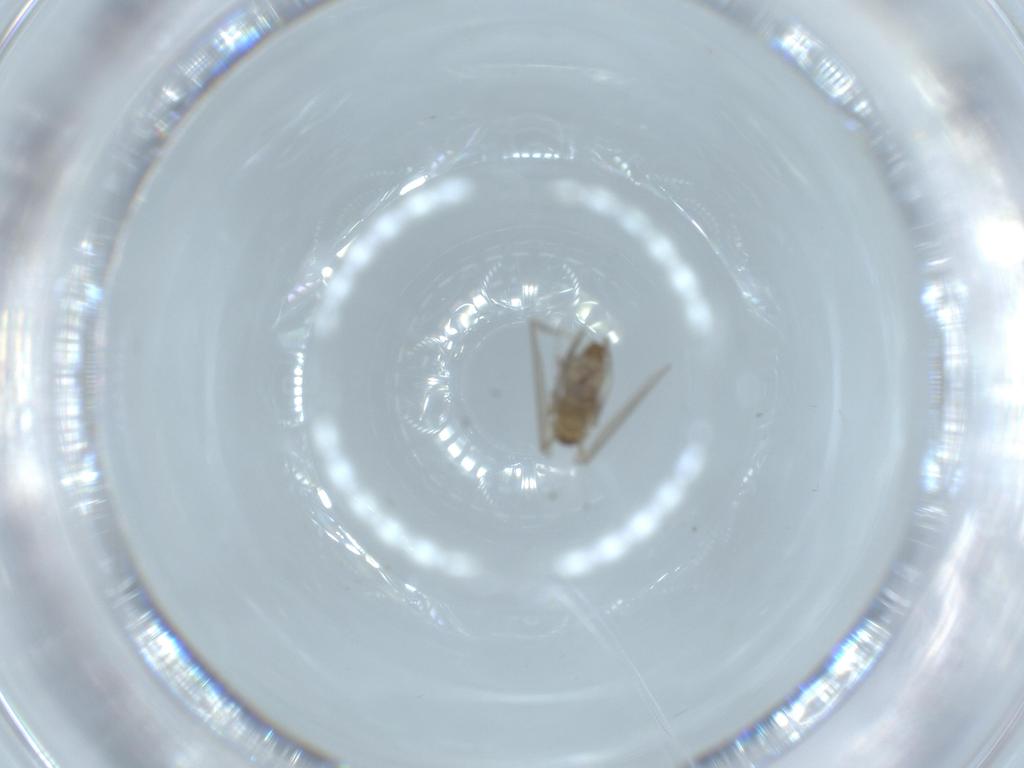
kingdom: Animalia
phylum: Arthropoda
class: Insecta
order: Diptera
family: Psychodidae
